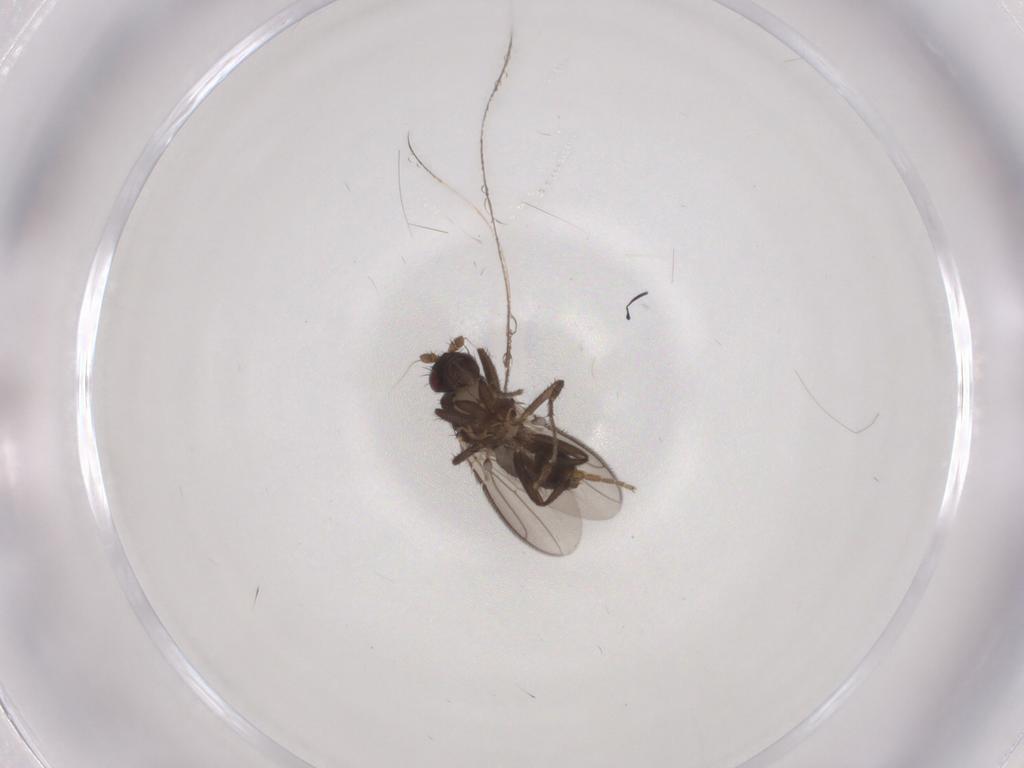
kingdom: Animalia
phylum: Arthropoda
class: Insecta
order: Diptera
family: Sphaeroceridae
